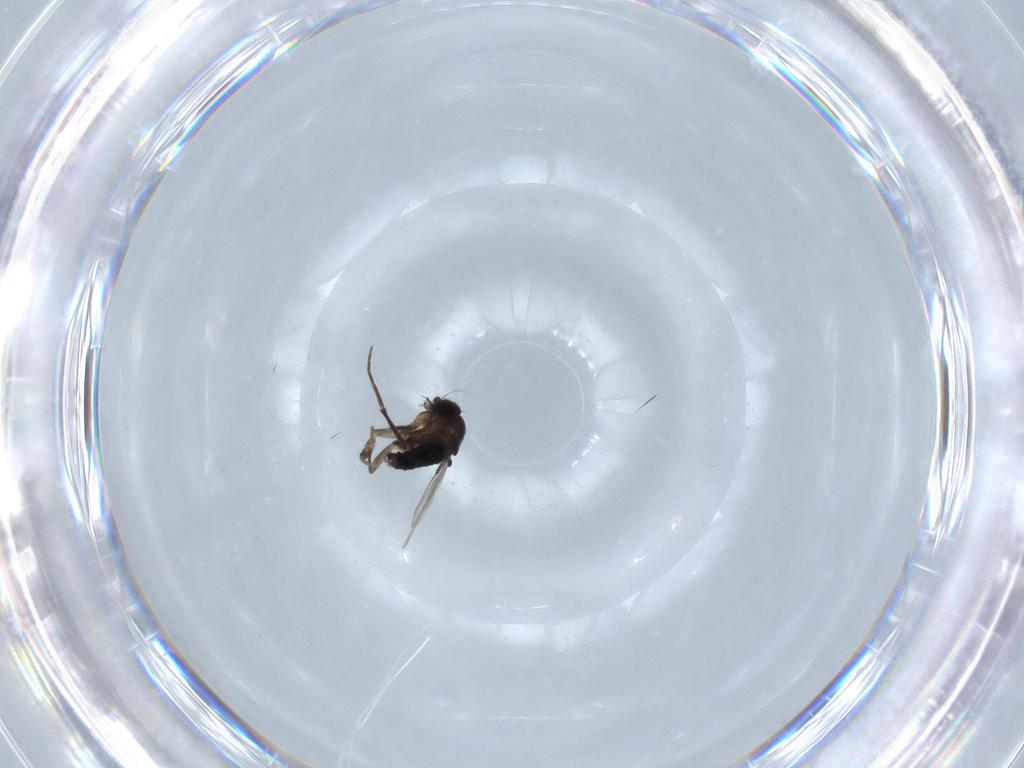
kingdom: Animalia
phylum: Arthropoda
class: Insecta
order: Diptera
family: Phoridae
